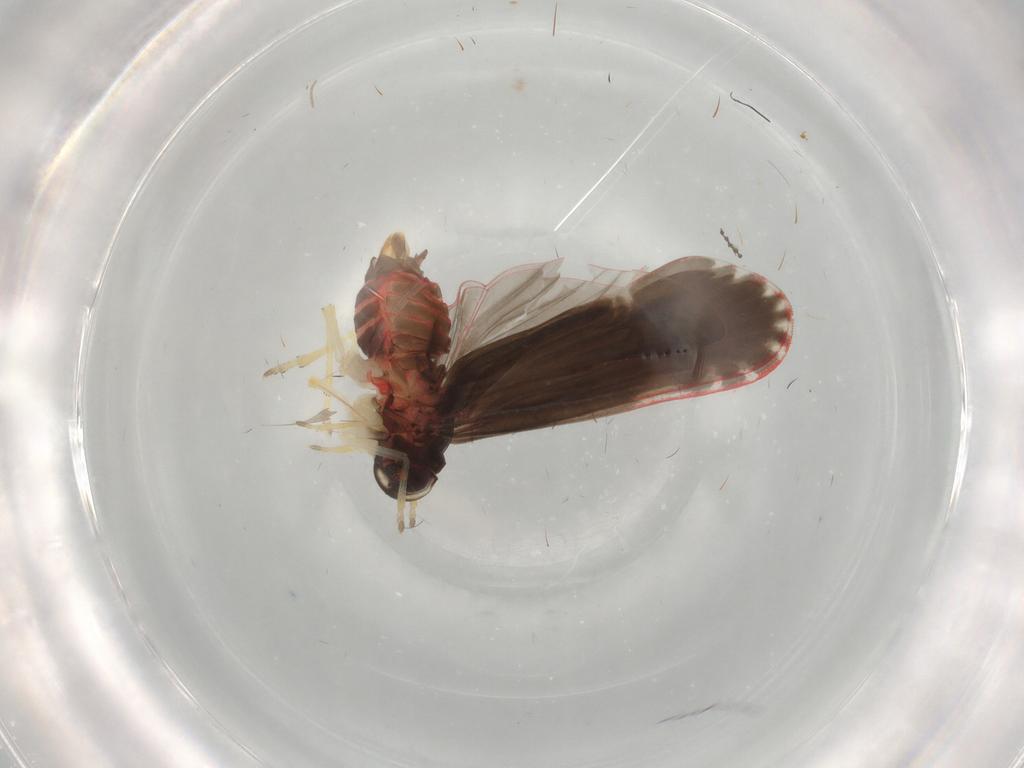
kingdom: Animalia
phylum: Arthropoda
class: Insecta
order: Hemiptera
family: Derbidae
